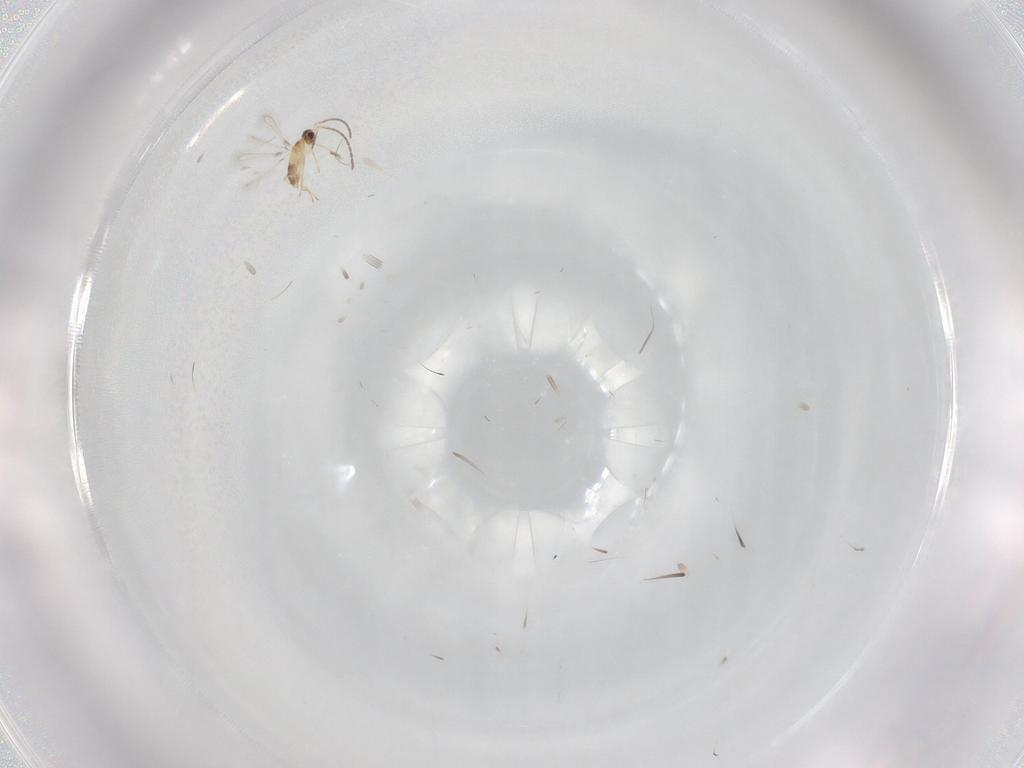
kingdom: Animalia
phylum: Arthropoda
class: Insecta
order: Hymenoptera
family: Mymaridae
